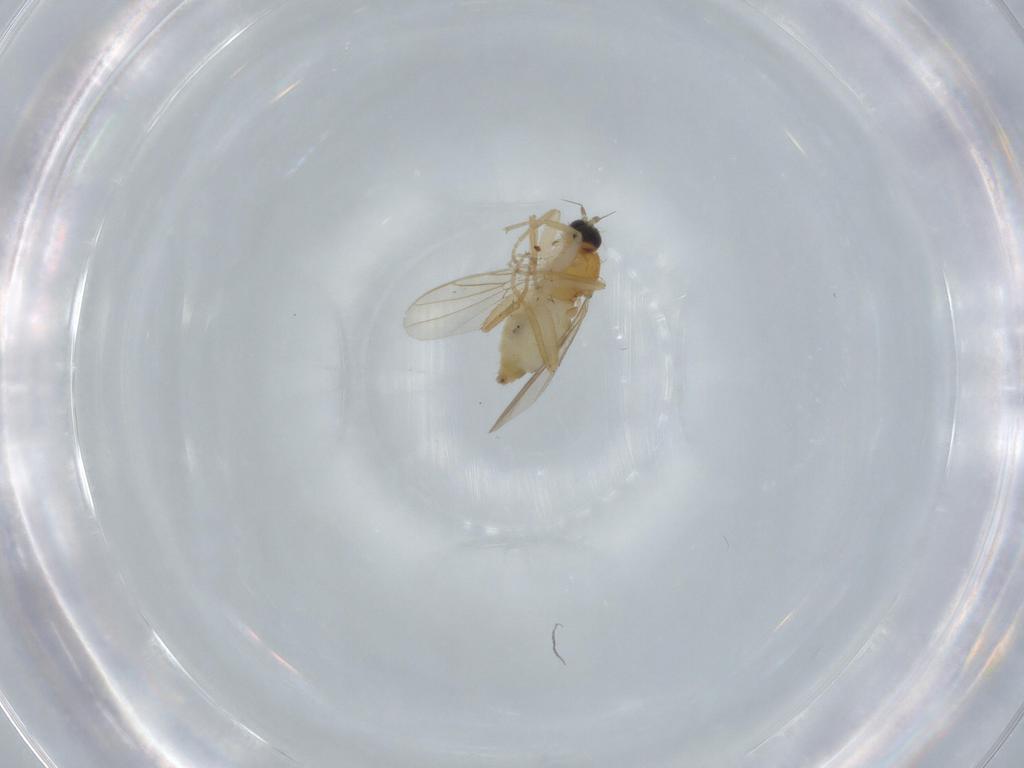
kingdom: Animalia
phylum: Arthropoda
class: Insecta
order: Diptera
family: Hybotidae
